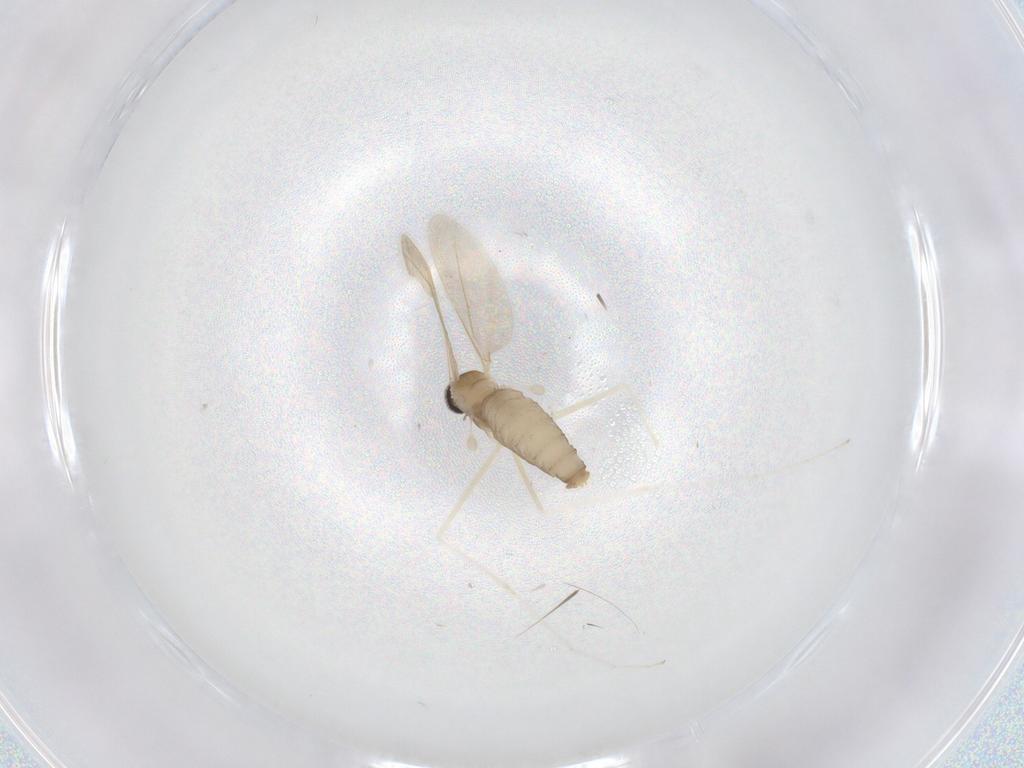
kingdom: Animalia
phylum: Arthropoda
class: Insecta
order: Diptera
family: Cecidomyiidae
